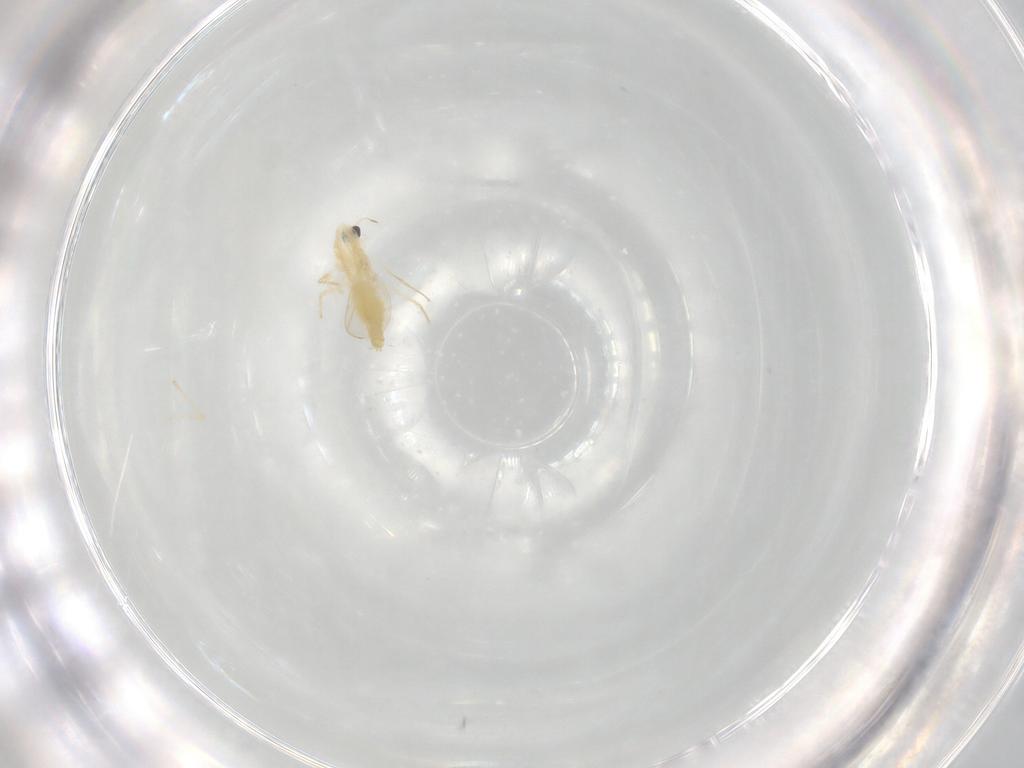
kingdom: Animalia
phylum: Arthropoda
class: Insecta
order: Diptera
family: Chironomidae
